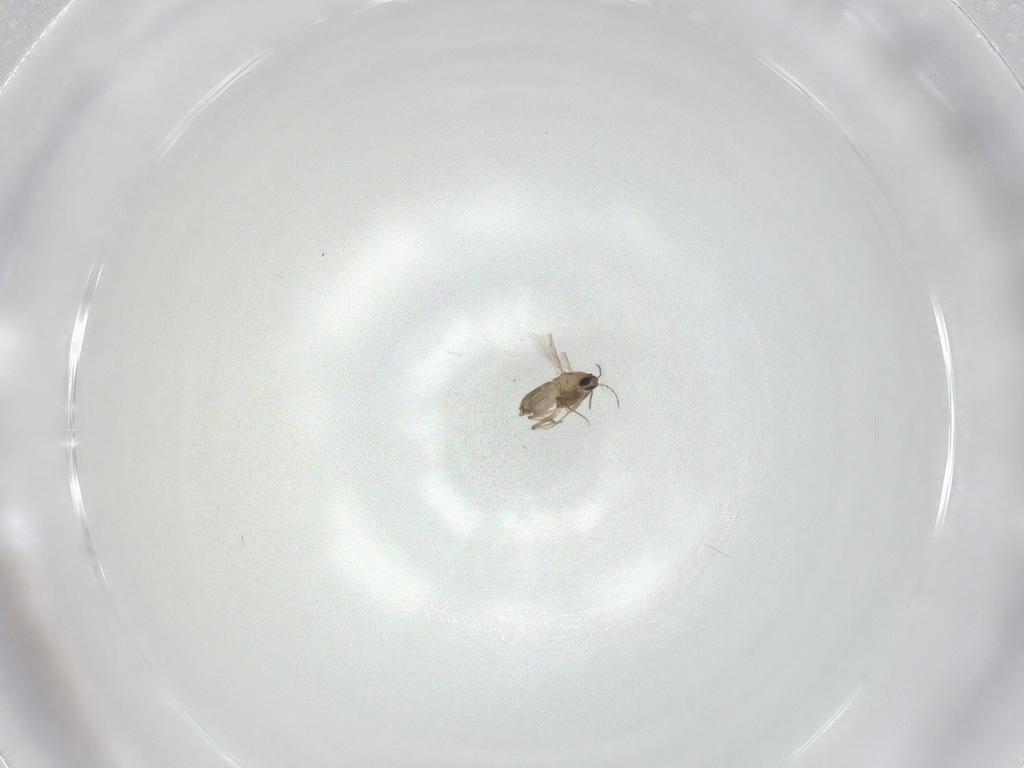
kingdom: Animalia
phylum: Arthropoda
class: Insecta
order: Diptera
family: Chironomidae
